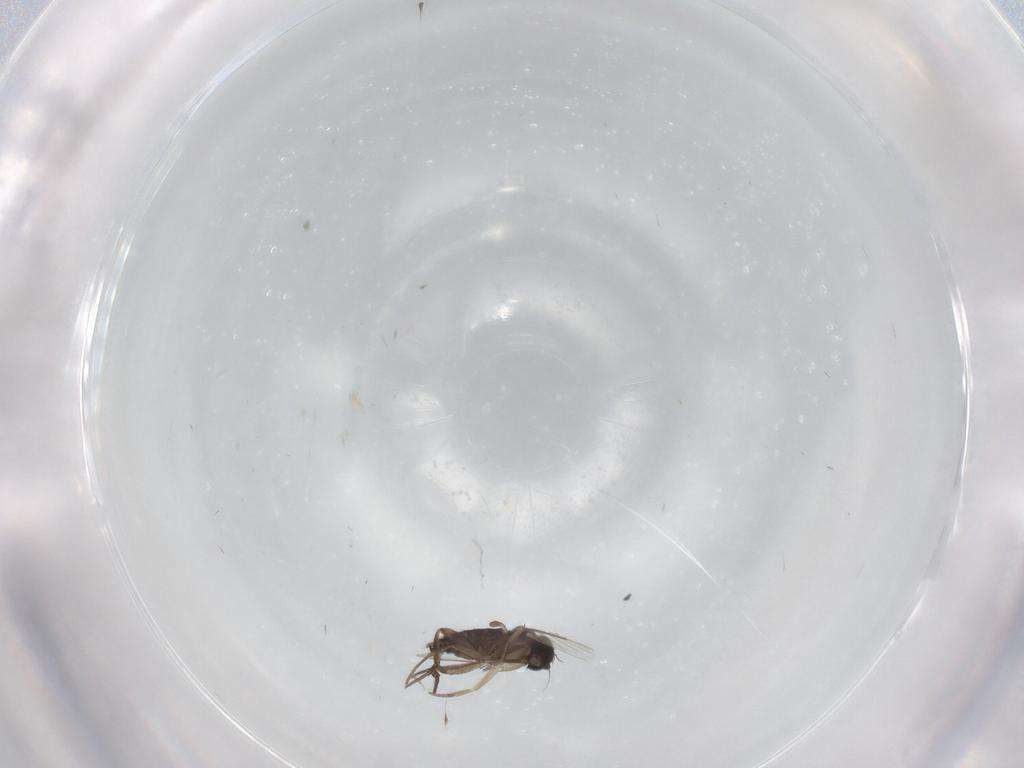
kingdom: Animalia
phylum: Arthropoda
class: Insecta
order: Diptera
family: Phoridae
